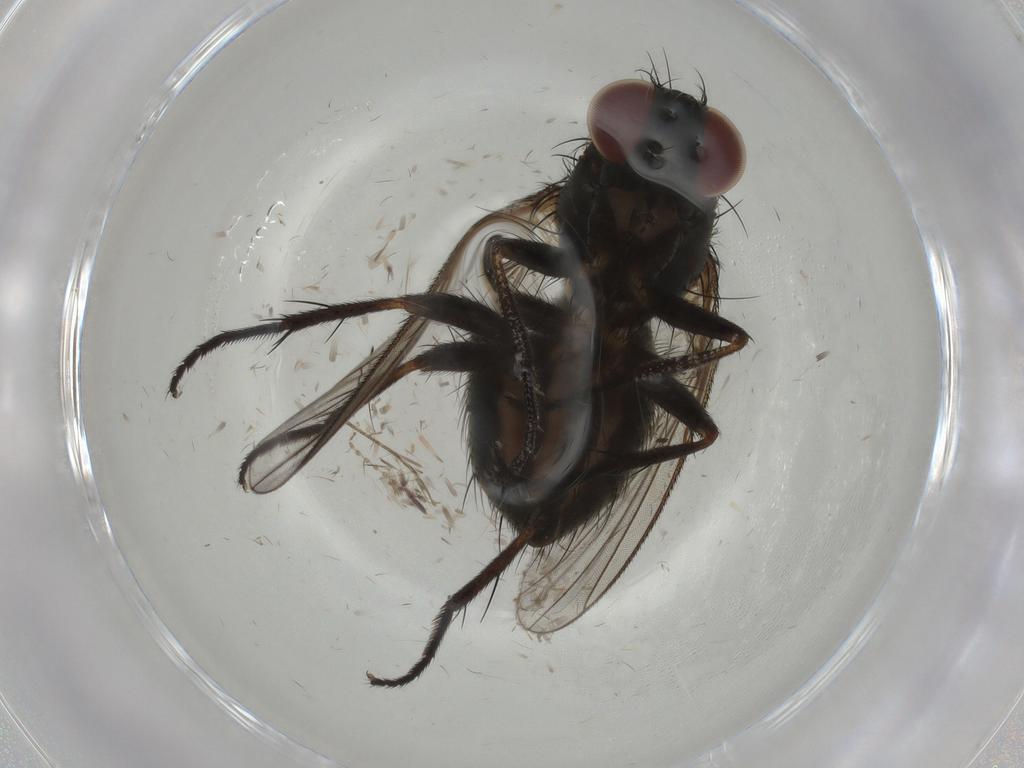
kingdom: Animalia
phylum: Arthropoda
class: Insecta
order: Diptera
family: Muscidae
